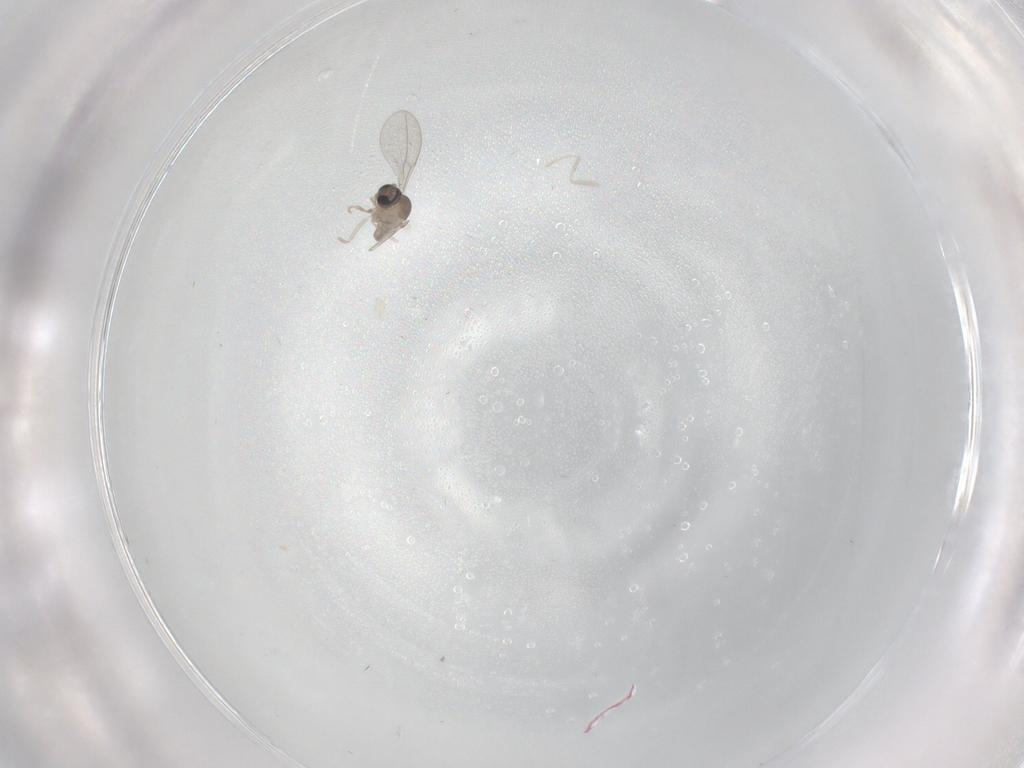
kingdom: Animalia
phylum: Arthropoda
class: Insecta
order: Diptera
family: Cecidomyiidae
